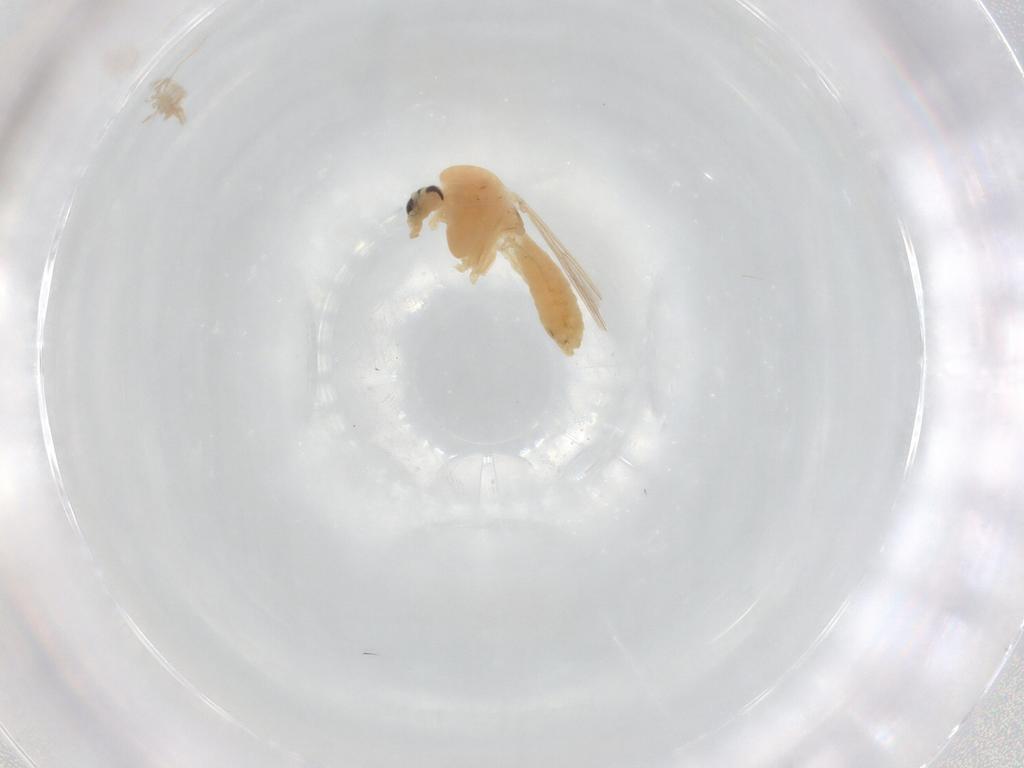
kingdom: Animalia
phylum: Arthropoda
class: Insecta
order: Diptera
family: Chironomidae
